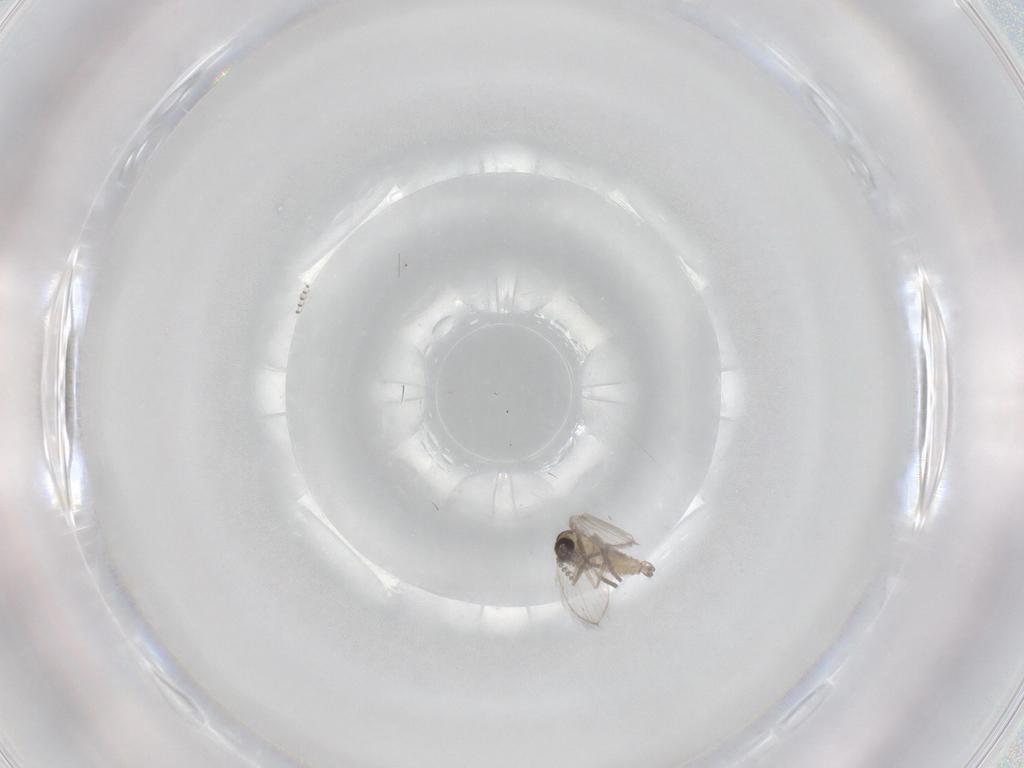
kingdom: Animalia
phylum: Arthropoda
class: Insecta
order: Diptera
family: Psychodidae
